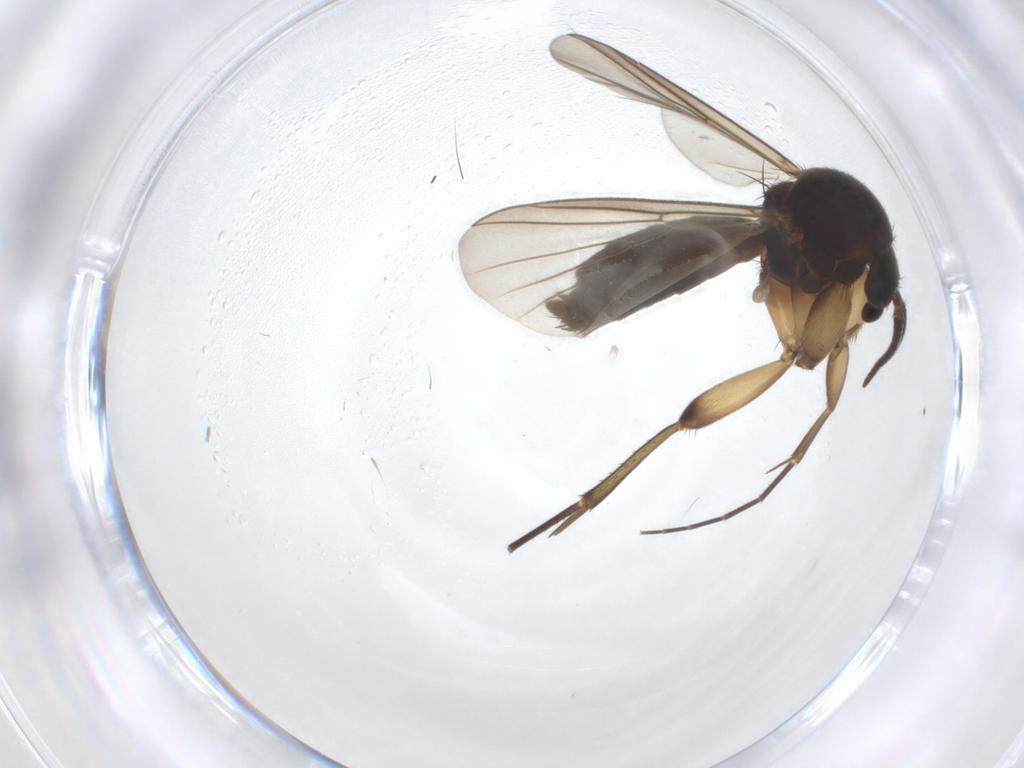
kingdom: Animalia
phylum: Arthropoda
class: Insecta
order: Diptera
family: Mycetophilidae
